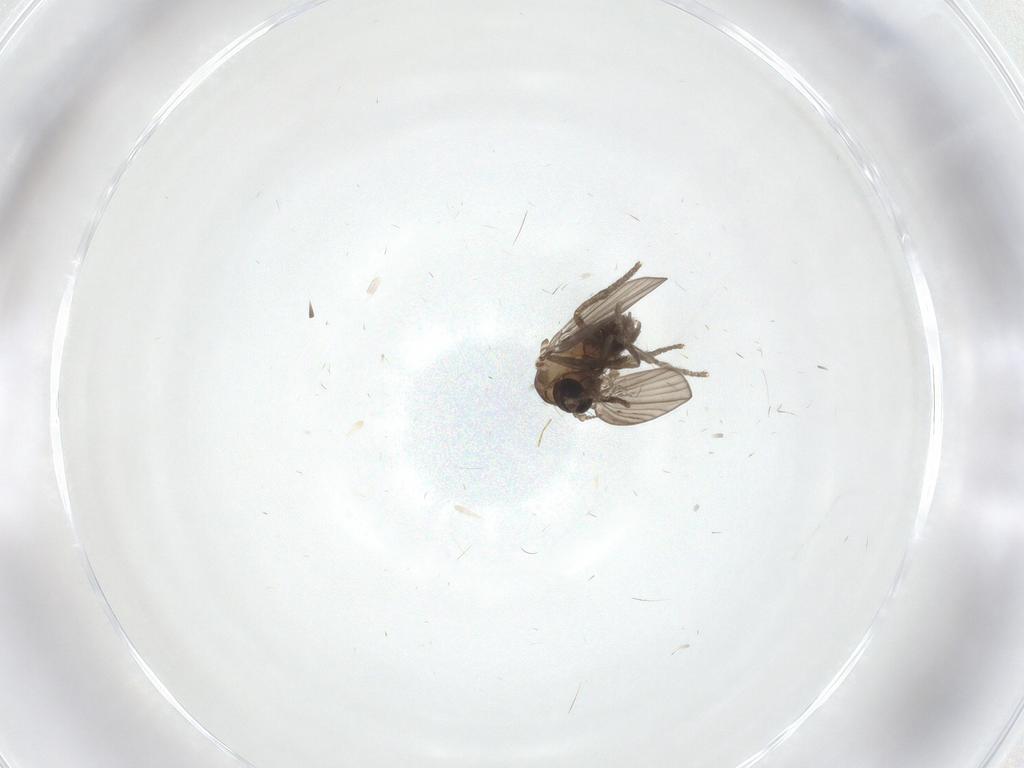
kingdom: Animalia
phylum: Arthropoda
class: Insecta
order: Diptera
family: Psychodidae
